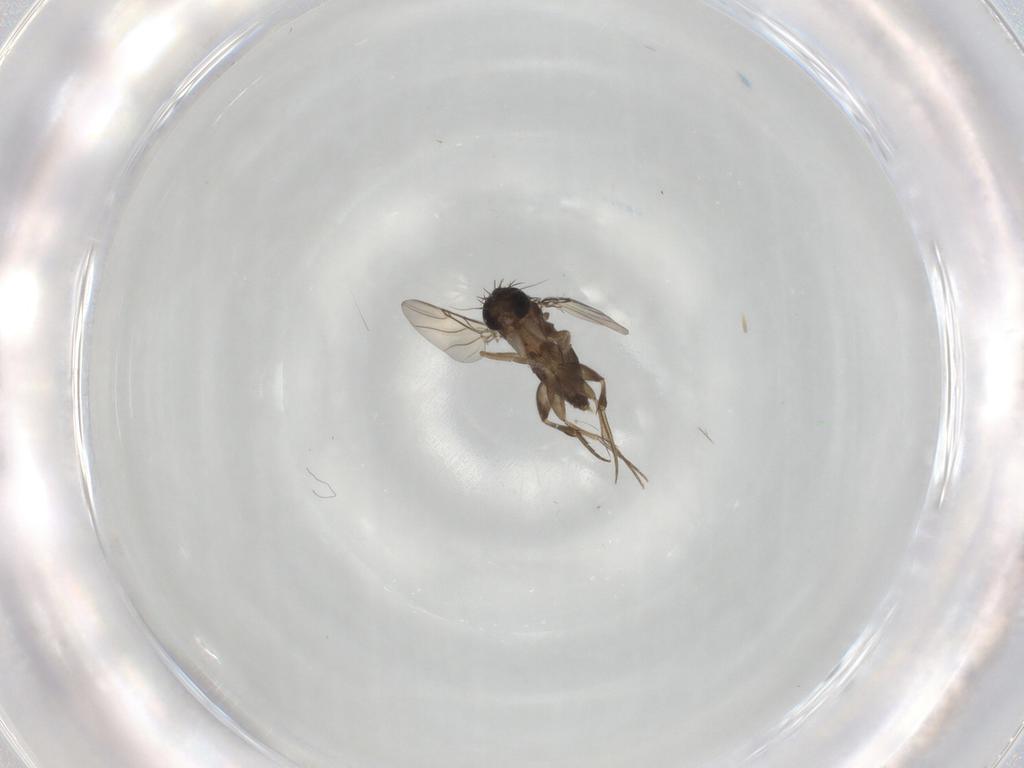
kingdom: Animalia
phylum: Arthropoda
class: Insecta
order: Diptera
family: Phoridae
